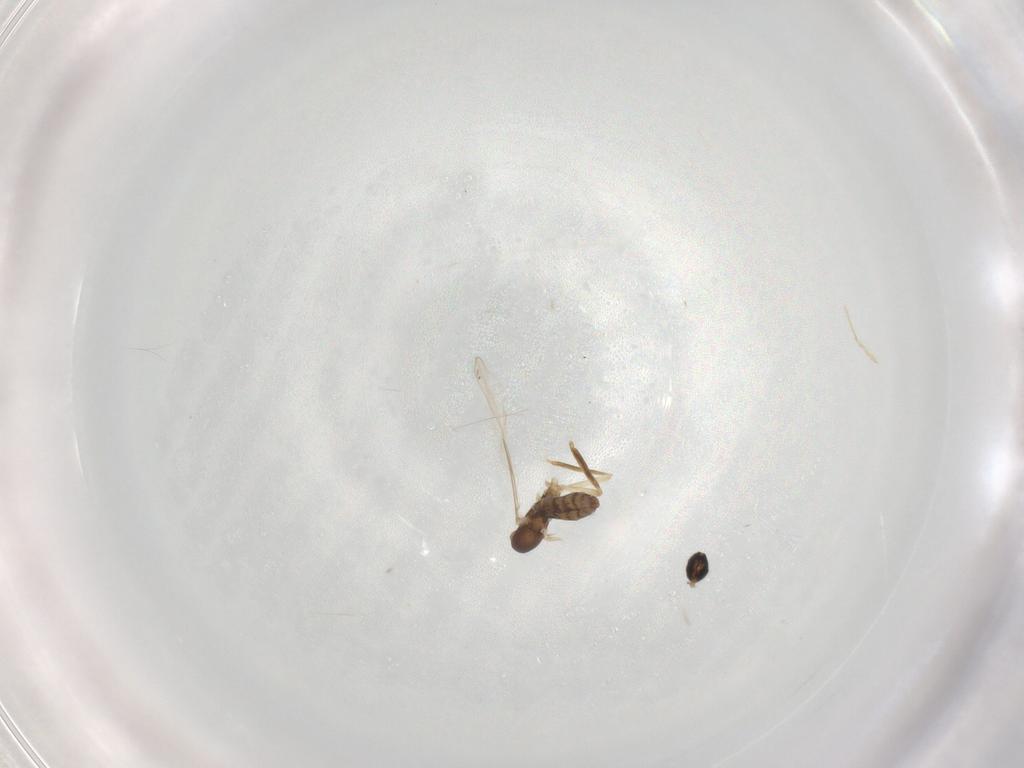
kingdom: Animalia
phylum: Arthropoda
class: Insecta
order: Diptera
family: Cecidomyiidae
